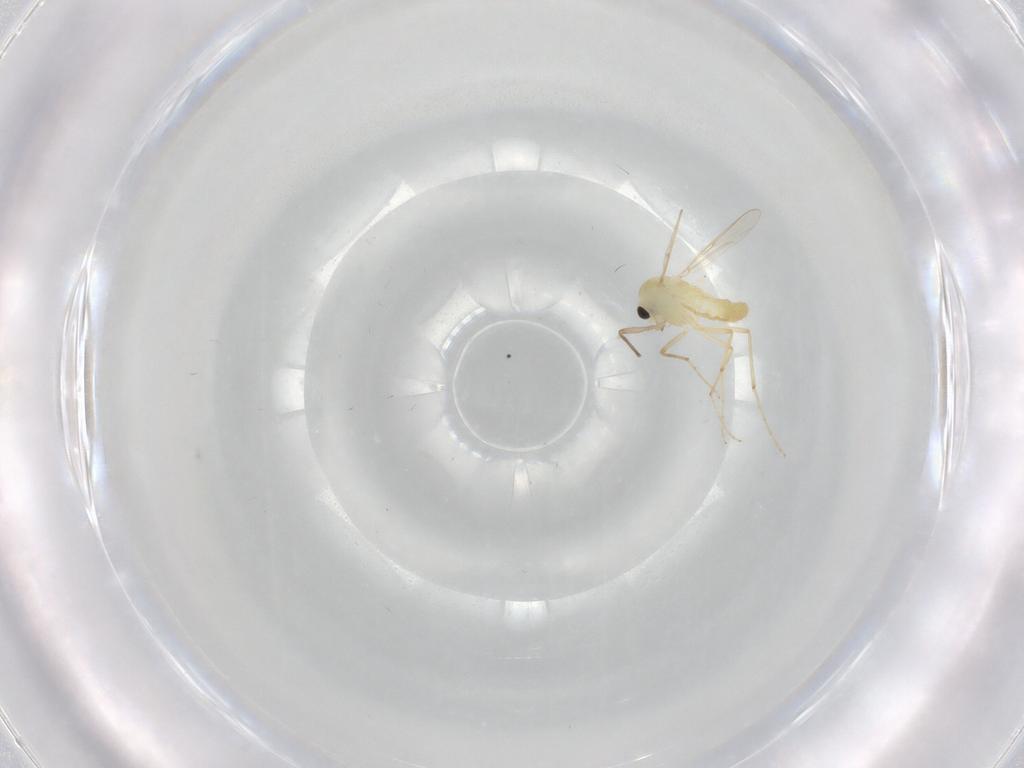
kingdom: Animalia
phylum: Arthropoda
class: Insecta
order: Diptera
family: Chironomidae
